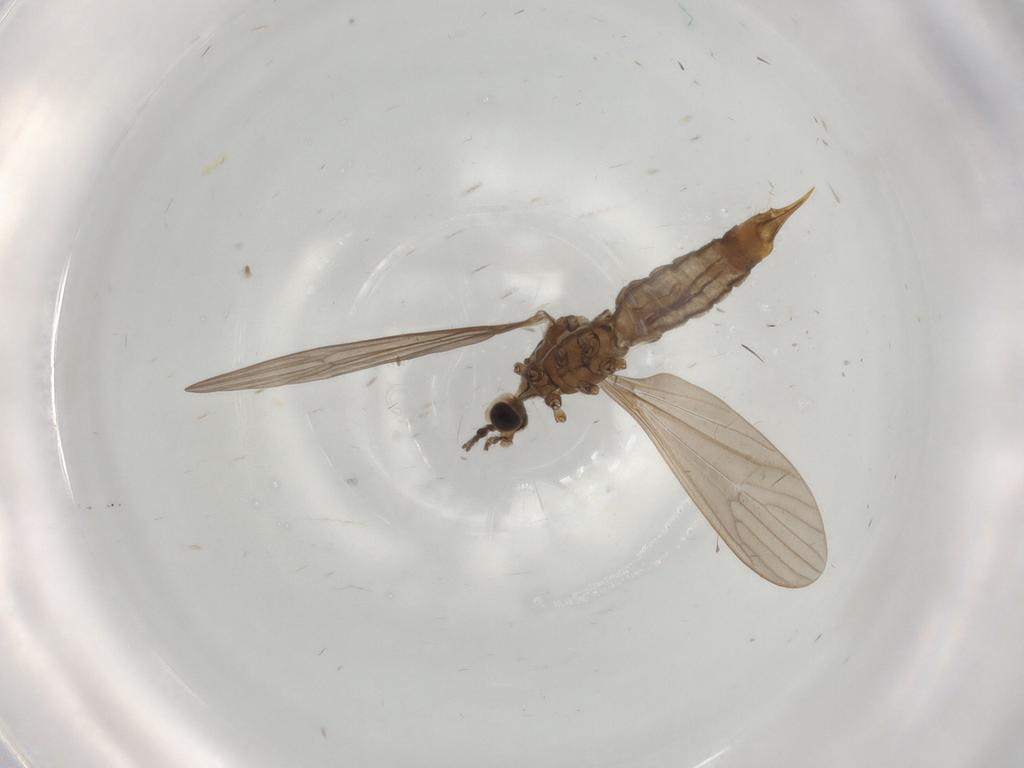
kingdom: Animalia
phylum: Arthropoda
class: Insecta
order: Diptera
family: Limoniidae
